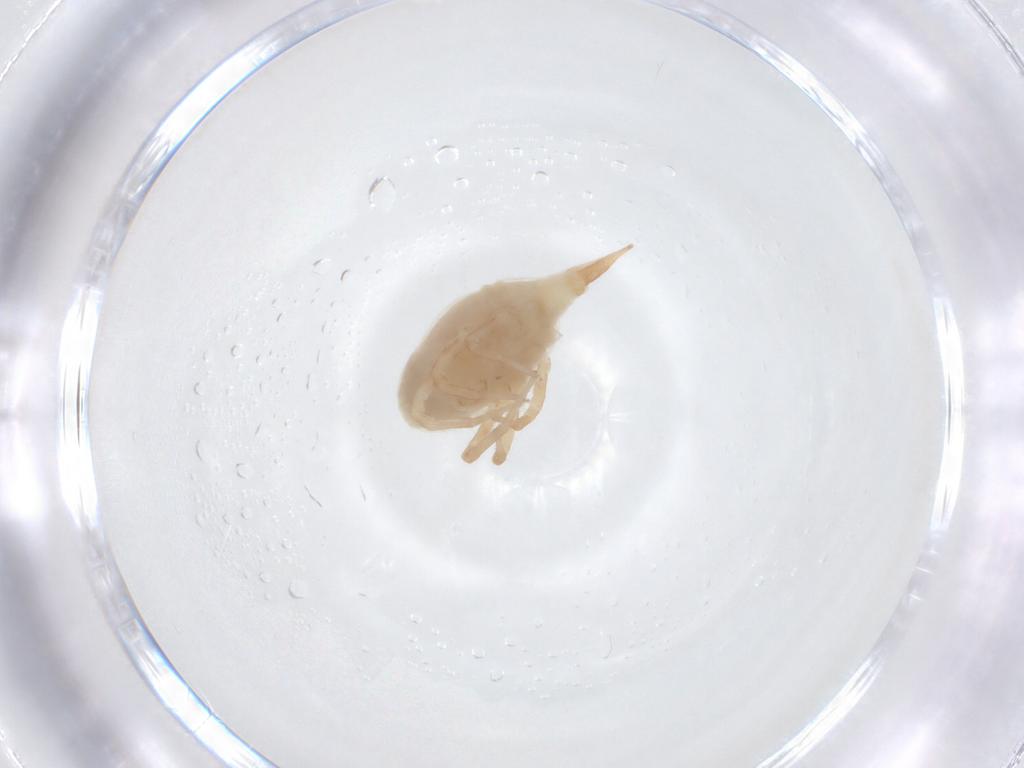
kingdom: Animalia
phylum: Arthropoda
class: Arachnida
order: Trombidiformes
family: Bdellidae
